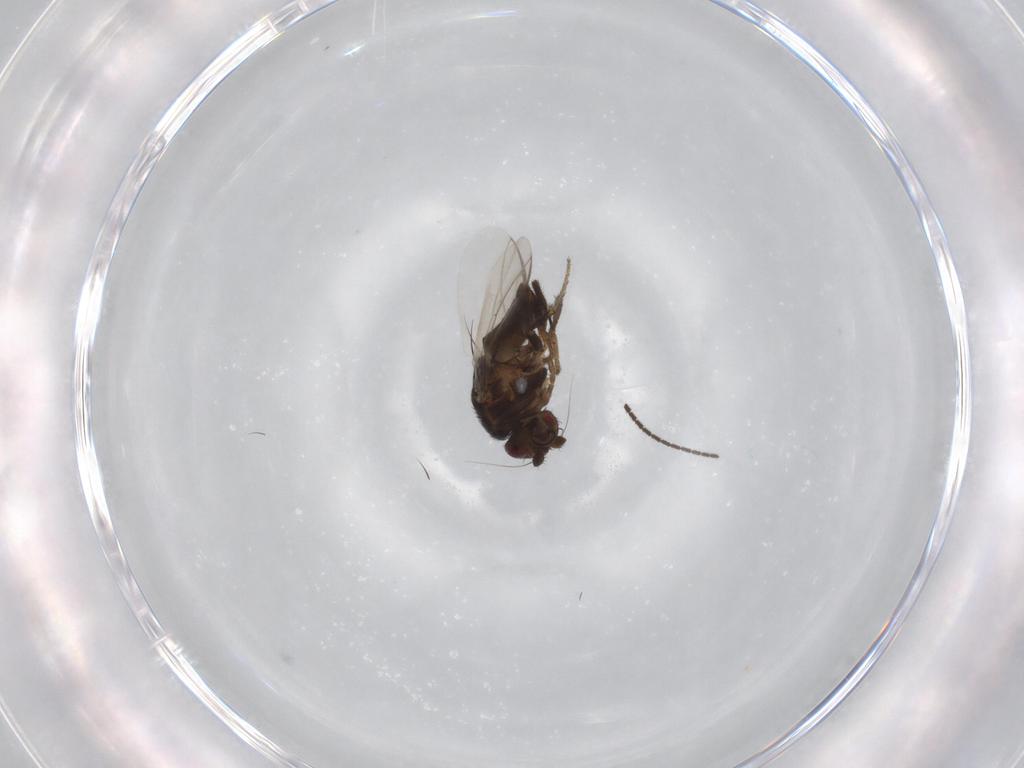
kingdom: Animalia
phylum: Arthropoda
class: Insecta
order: Diptera
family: Sphaeroceridae
